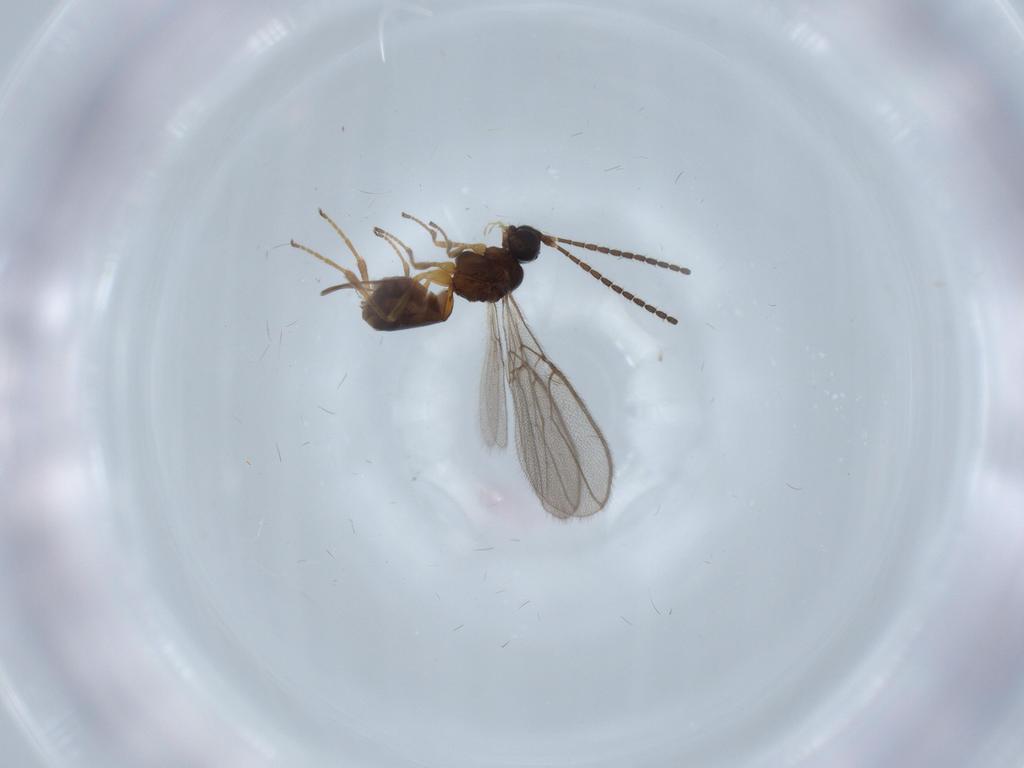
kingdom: Animalia
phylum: Arthropoda
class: Insecta
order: Hymenoptera
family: Braconidae
